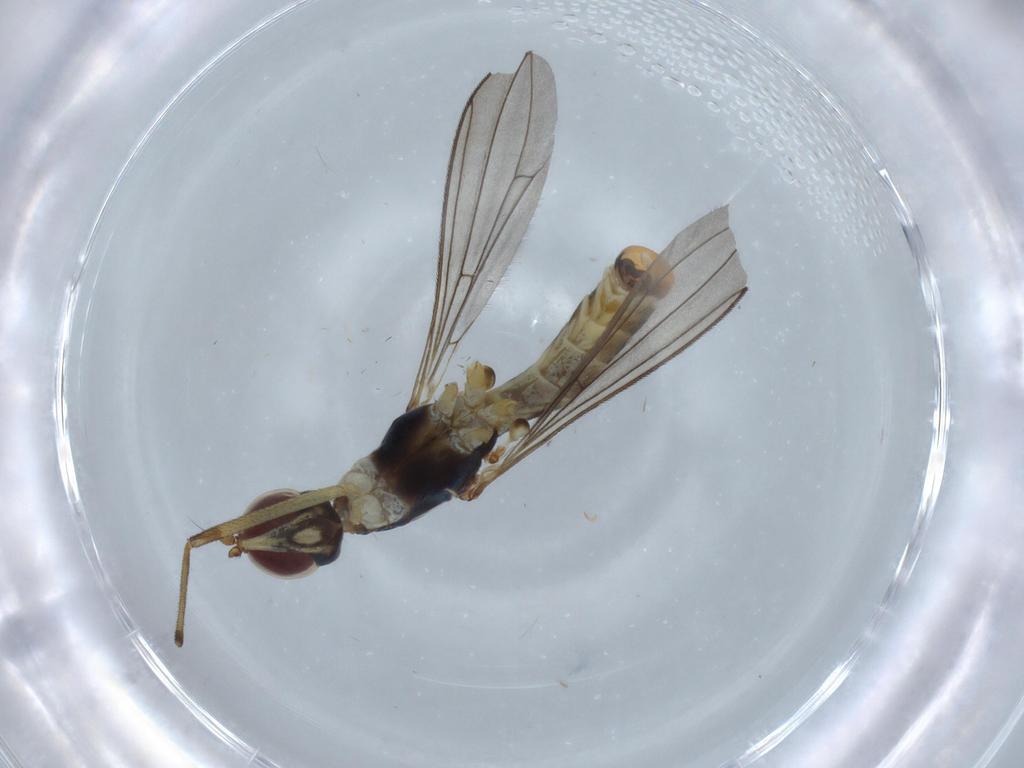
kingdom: Animalia
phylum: Arthropoda
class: Insecta
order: Diptera
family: Micropezidae
